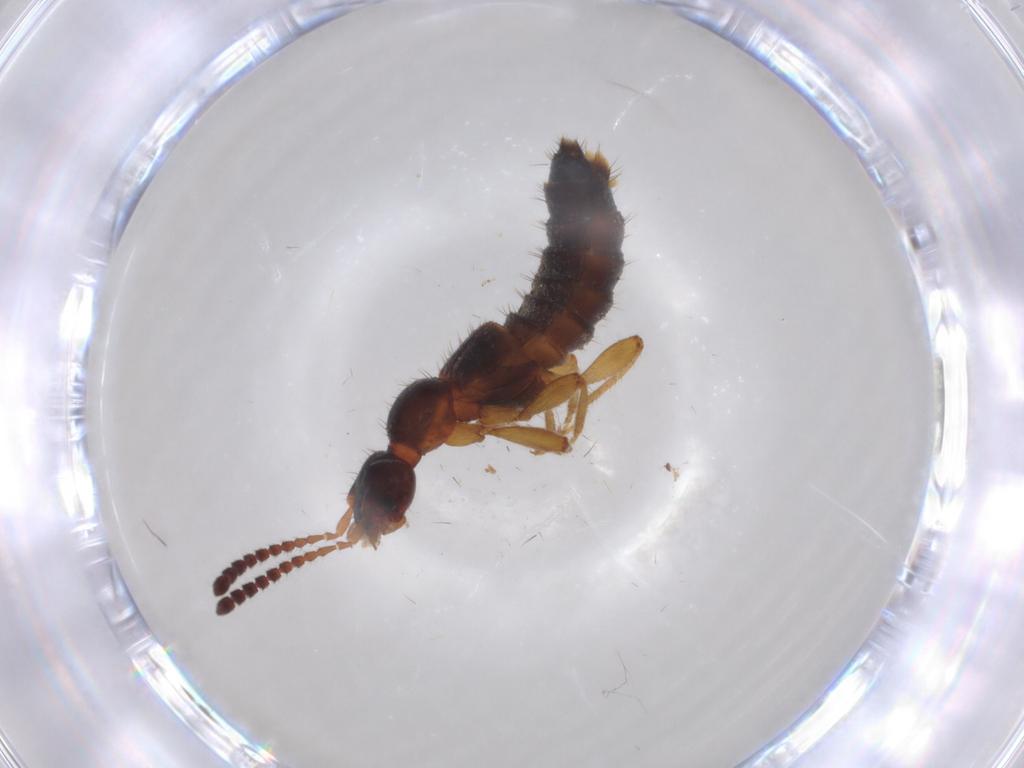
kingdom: Animalia
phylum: Arthropoda
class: Insecta
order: Coleoptera
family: Staphylinidae
